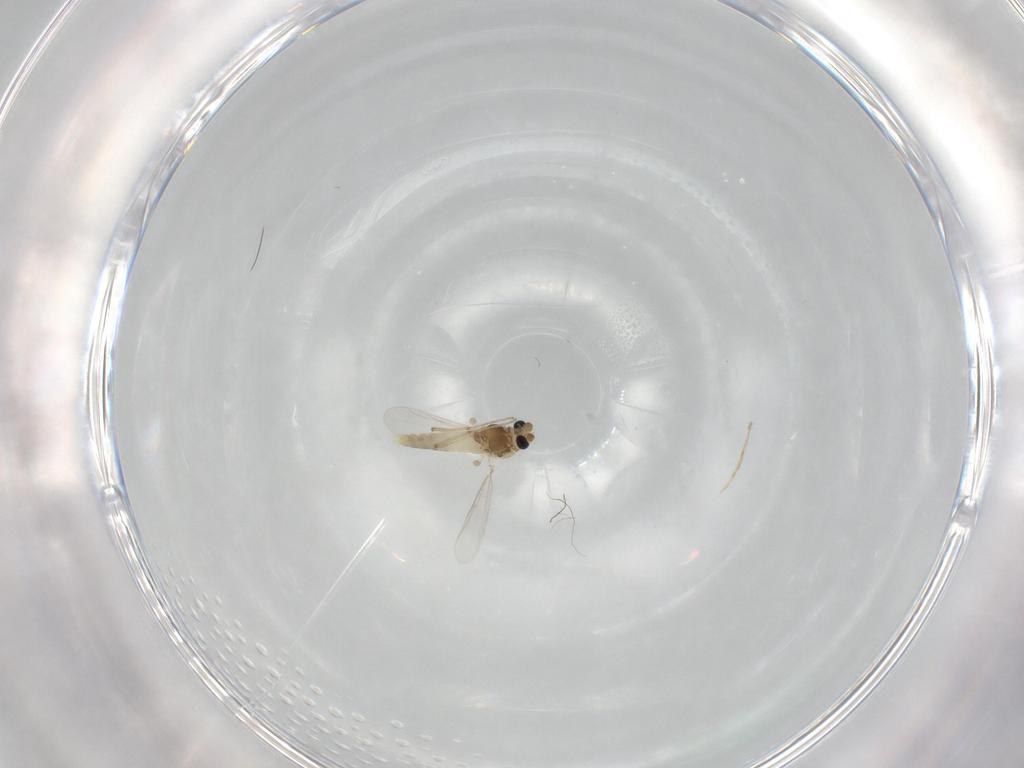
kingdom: Animalia
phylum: Arthropoda
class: Insecta
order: Diptera
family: Chironomidae
